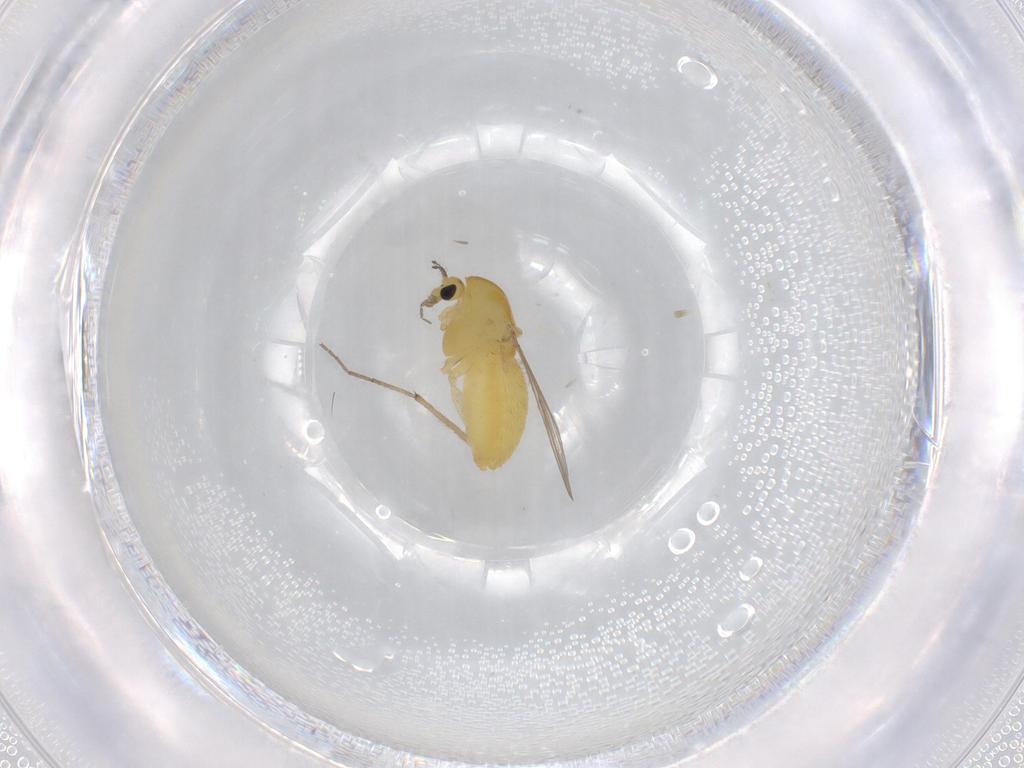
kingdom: Animalia
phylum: Arthropoda
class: Insecta
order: Diptera
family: Chironomidae
